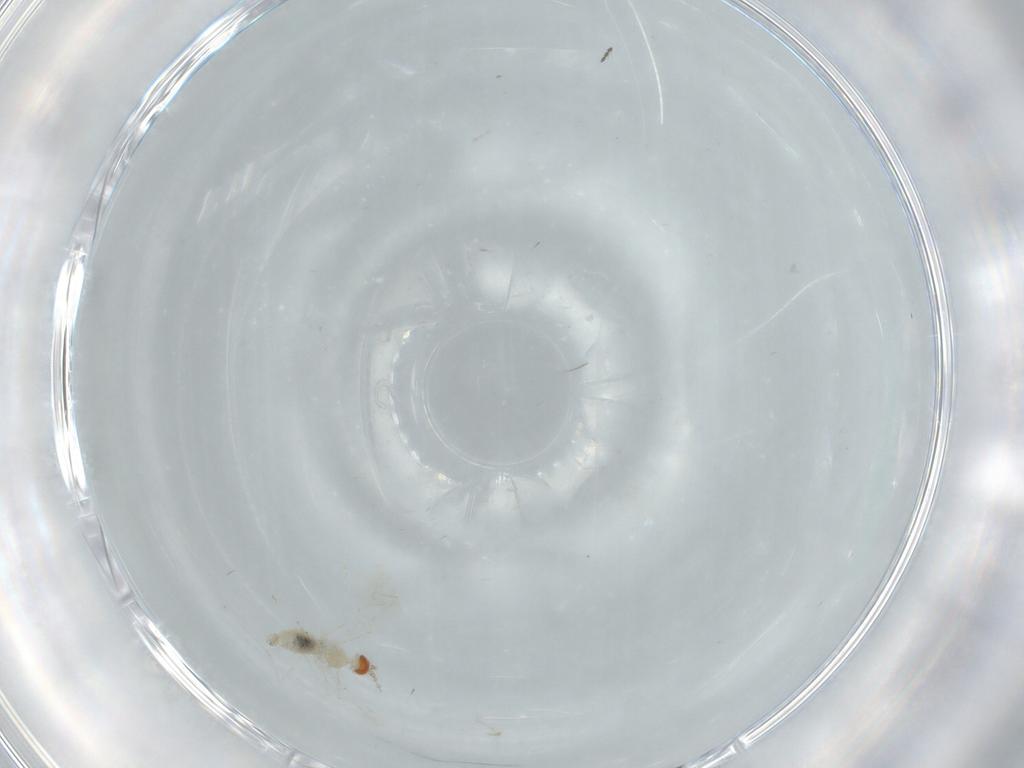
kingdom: Animalia
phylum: Arthropoda
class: Insecta
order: Diptera
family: Cecidomyiidae
